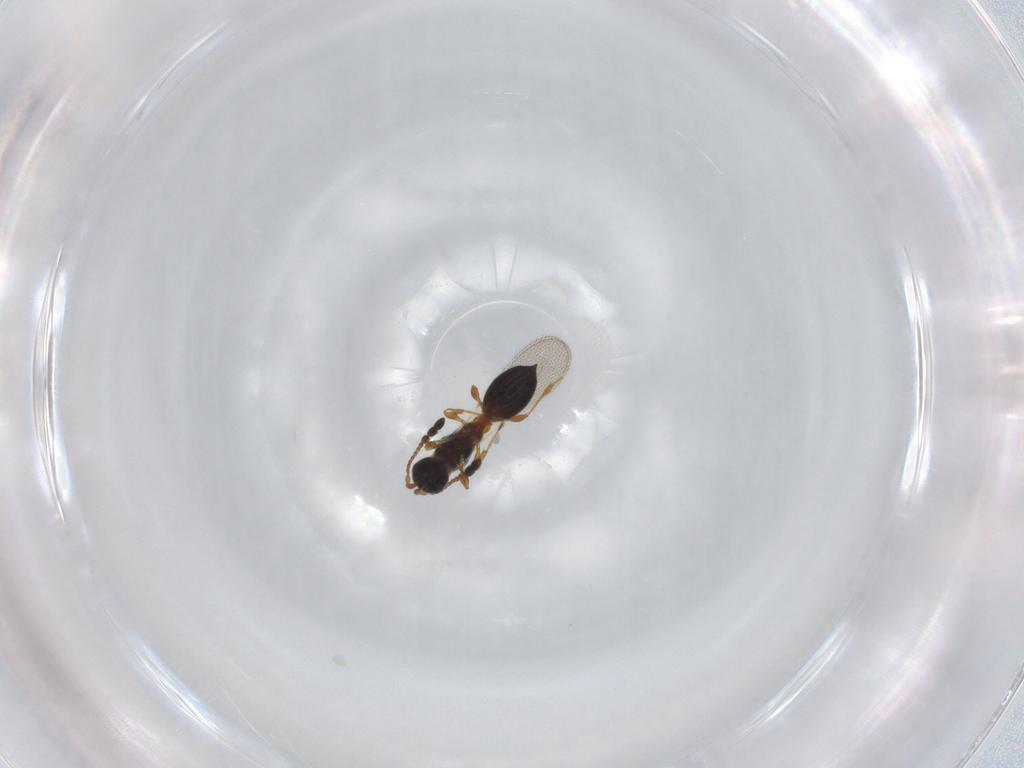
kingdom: Animalia
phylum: Arthropoda
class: Insecta
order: Hymenoptera
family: Diapriidae
